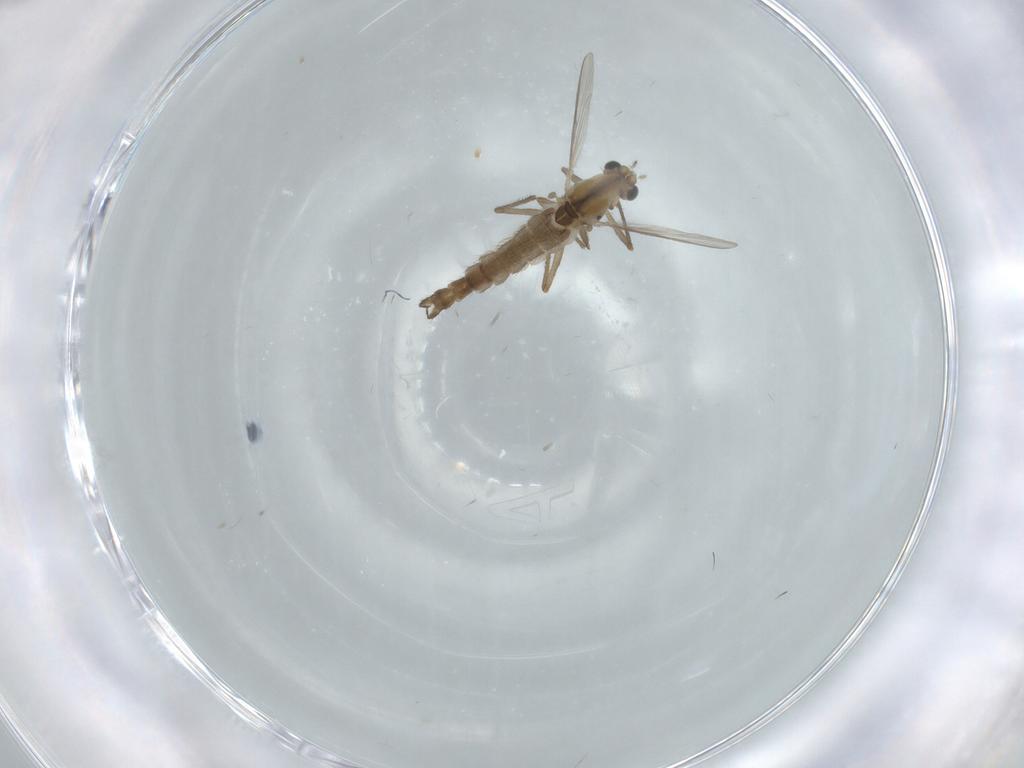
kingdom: Animalia
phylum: Arthropoda
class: Insecta
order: Diptera
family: Chironomidae
